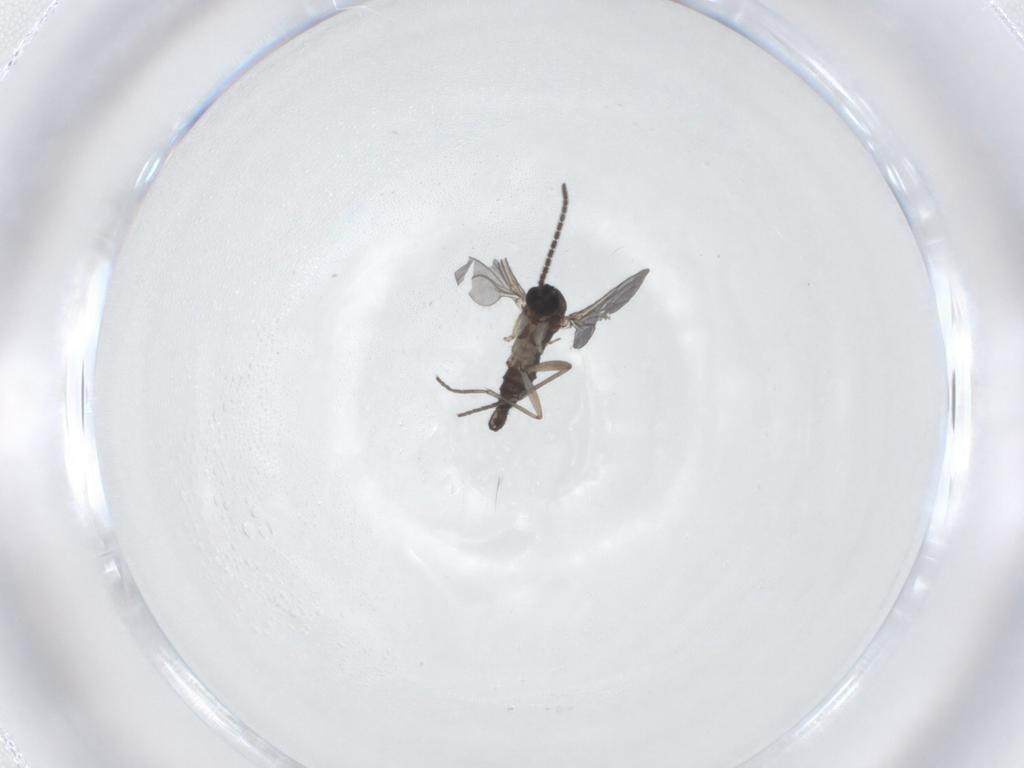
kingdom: Animalia
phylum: Arthropoda
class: Insecta
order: Diptera
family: Sciaridae
